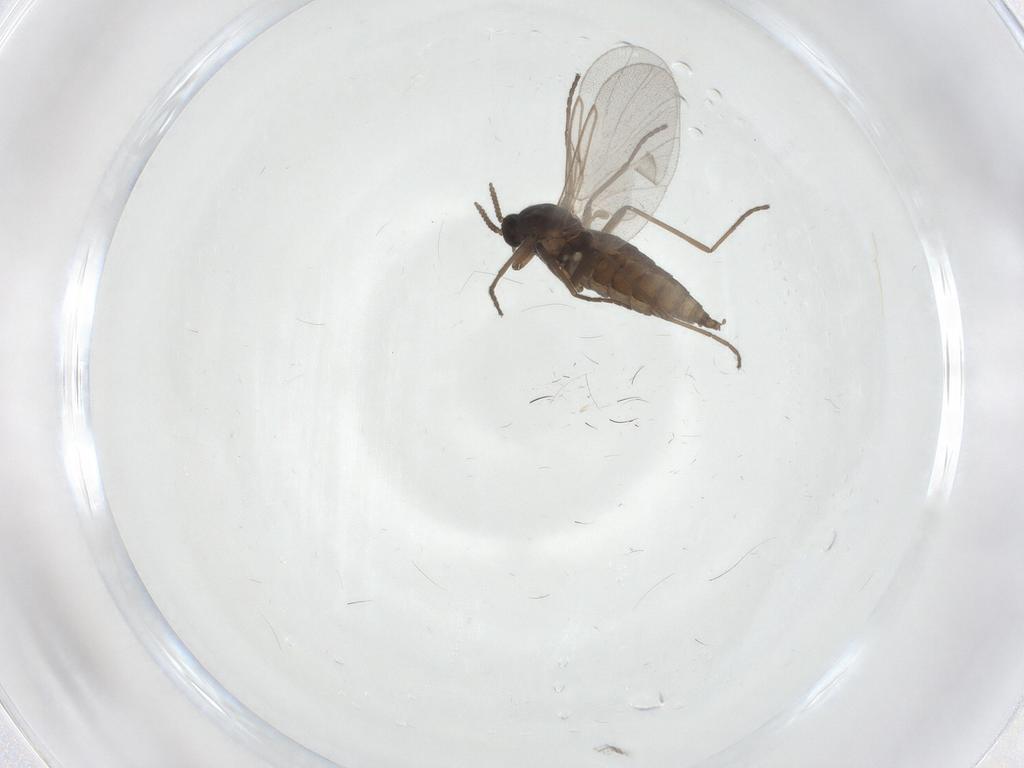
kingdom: Animalia
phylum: Arthropoda
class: Insecta
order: Diptera
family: Cecidomyiidae
